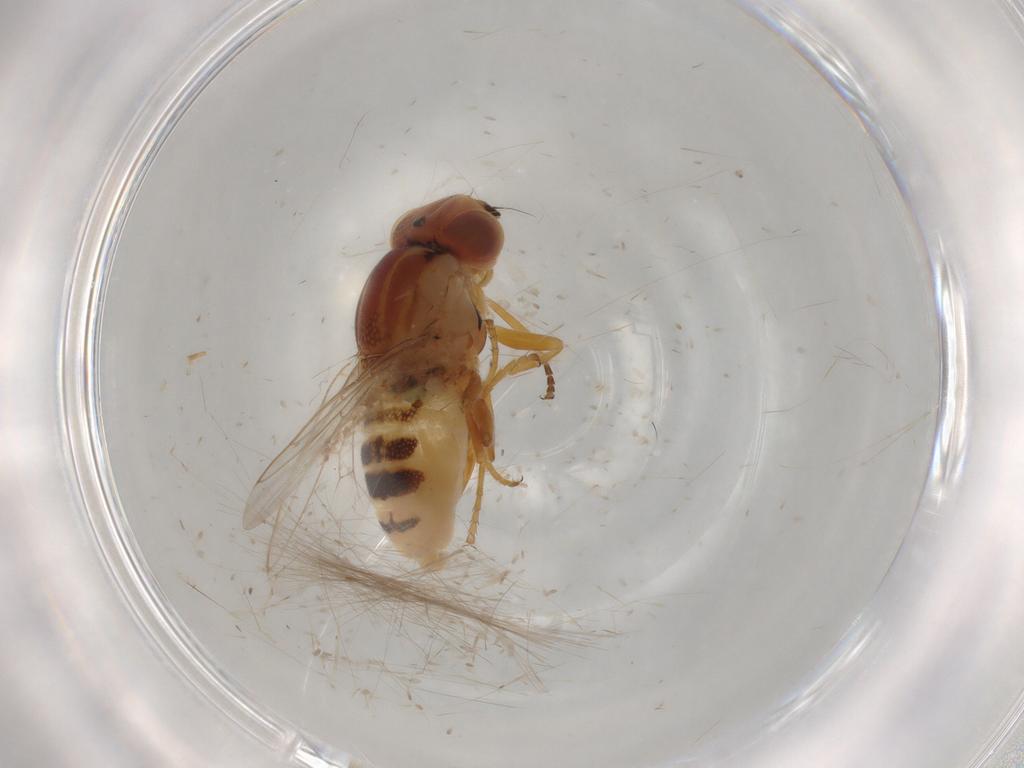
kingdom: Animalia
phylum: Arthropoda
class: Insecta
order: Diptera
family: Chloropidae
